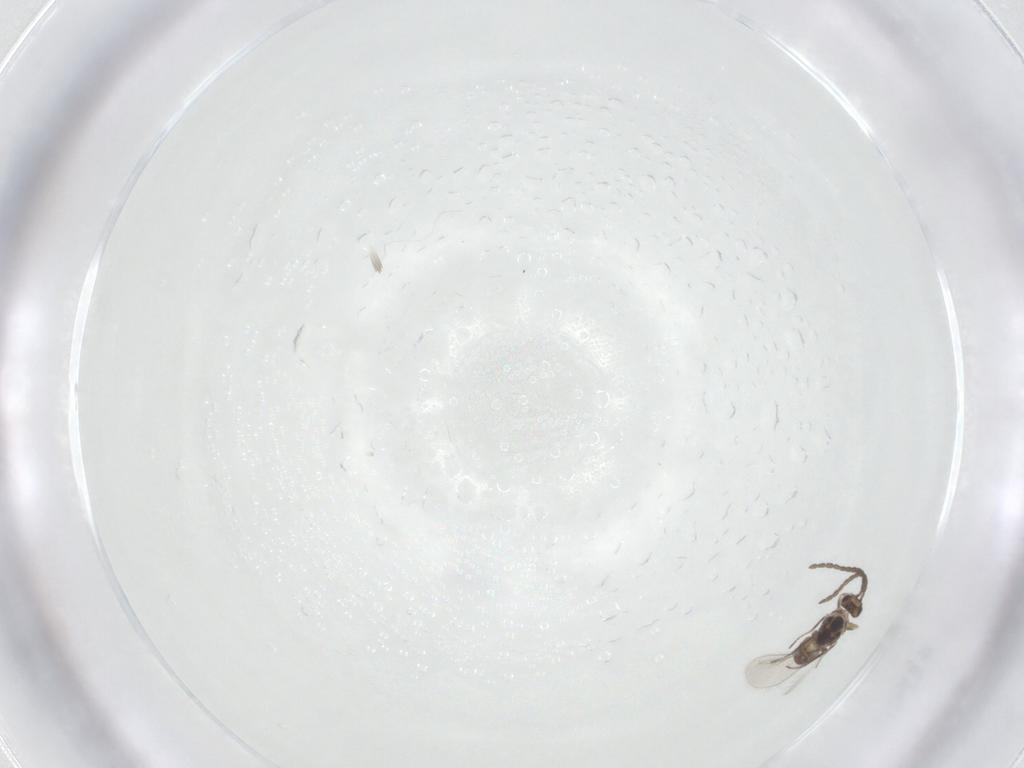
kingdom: Animalia
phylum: Arthropoda
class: Insecta
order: Hymenoptera
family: Mymaridae
